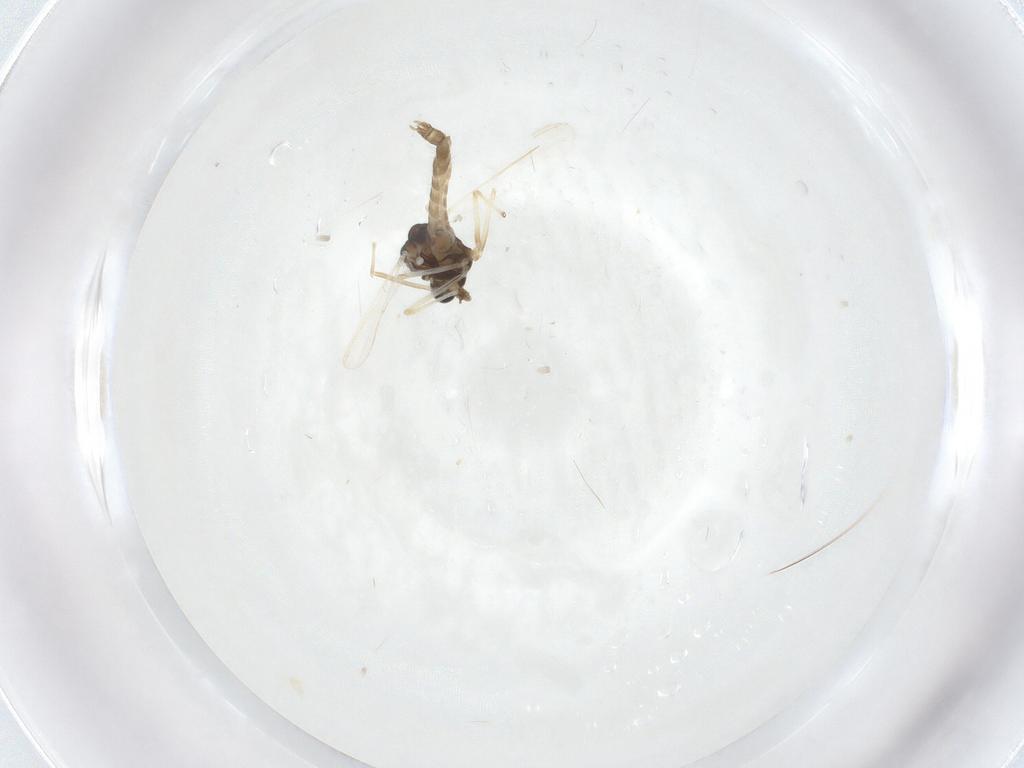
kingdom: Animalia
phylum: Arthropoda
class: Insecta
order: Diptera
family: Chironomidae
